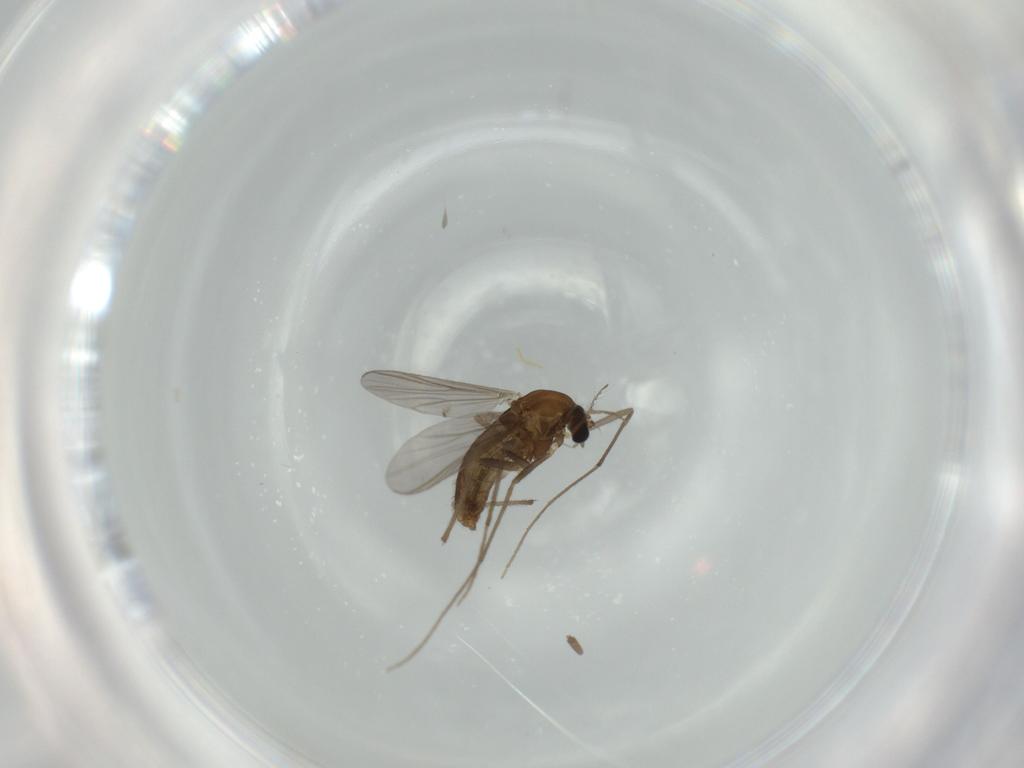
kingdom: Animalia
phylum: Arthropoda
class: Insecta
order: Diptera
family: Chironomidae
